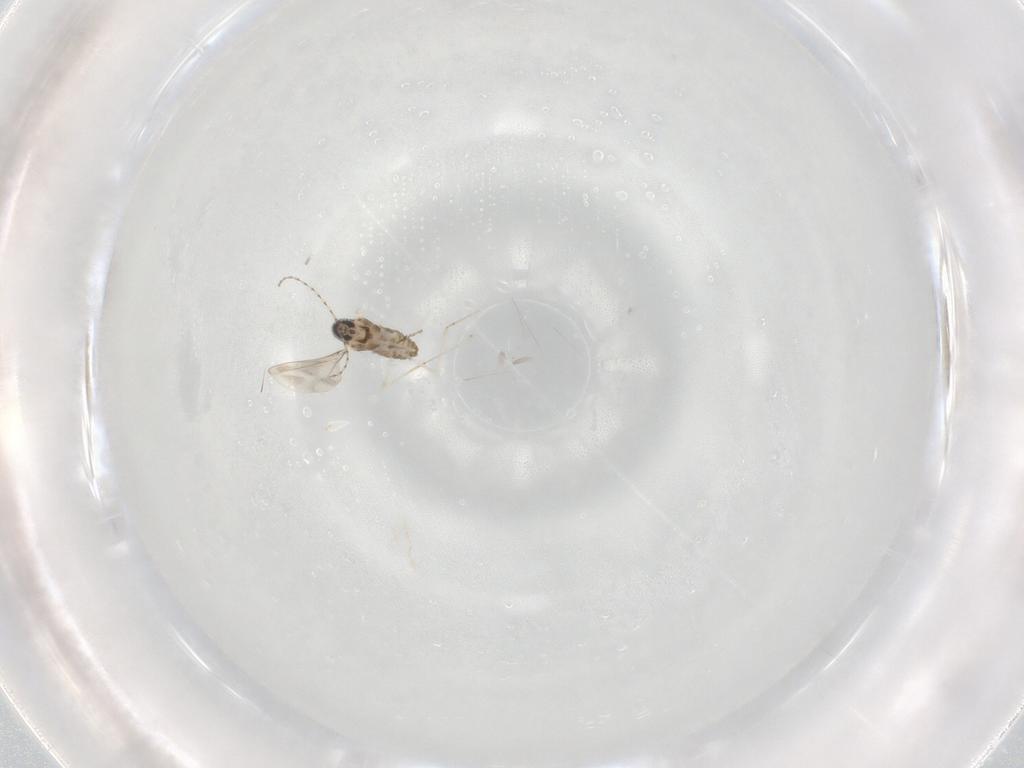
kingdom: Animalia
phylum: Arthropoda
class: Insecta
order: Diptera
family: Cecidomyiidae
